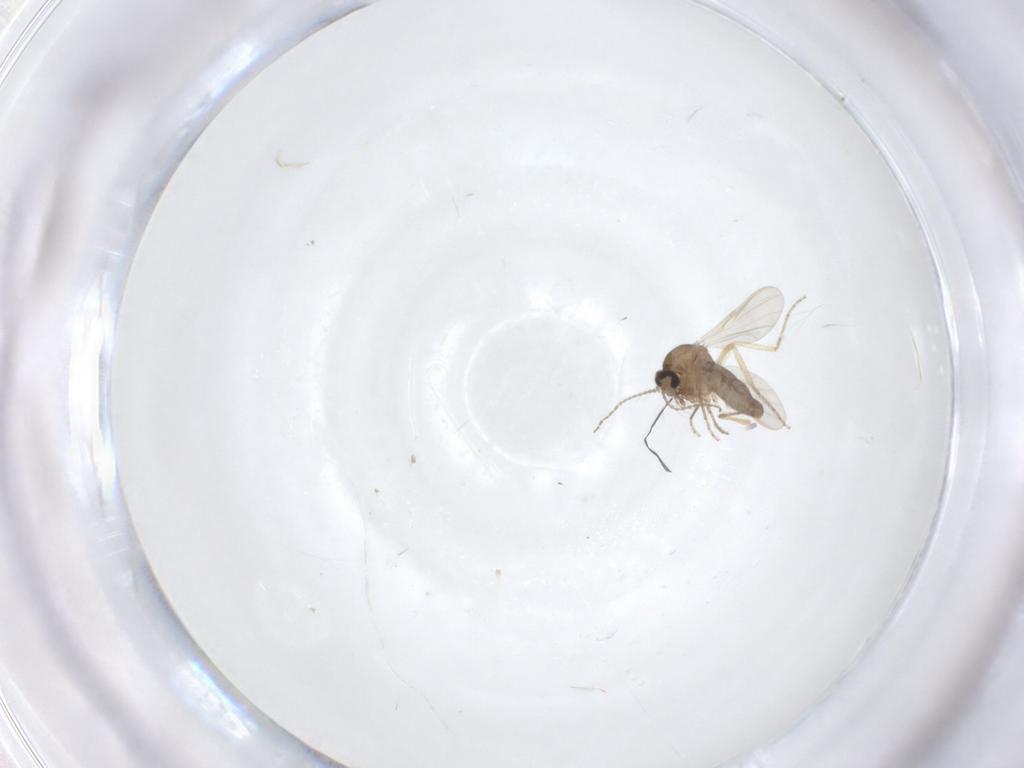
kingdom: Animalia
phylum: Arthropoda
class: Insecta
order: Diptera
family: Ceratopogonidae
